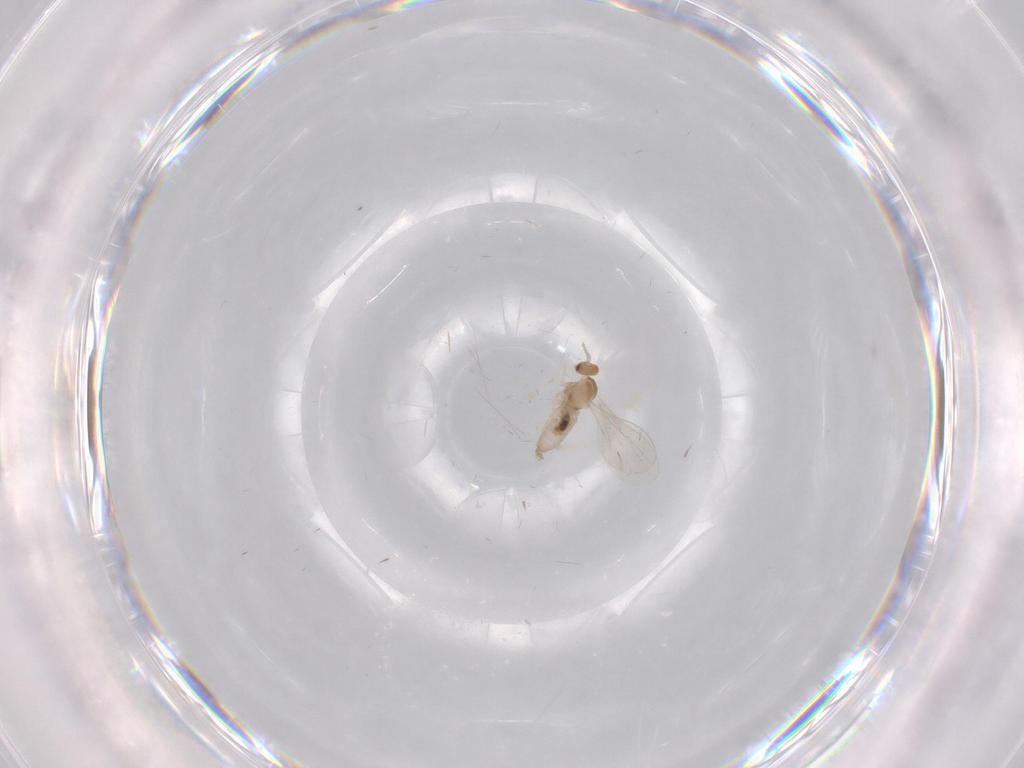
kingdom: Animalia
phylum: Arthropoda
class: Insecta
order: Diptera
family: Cecidomyiidae
